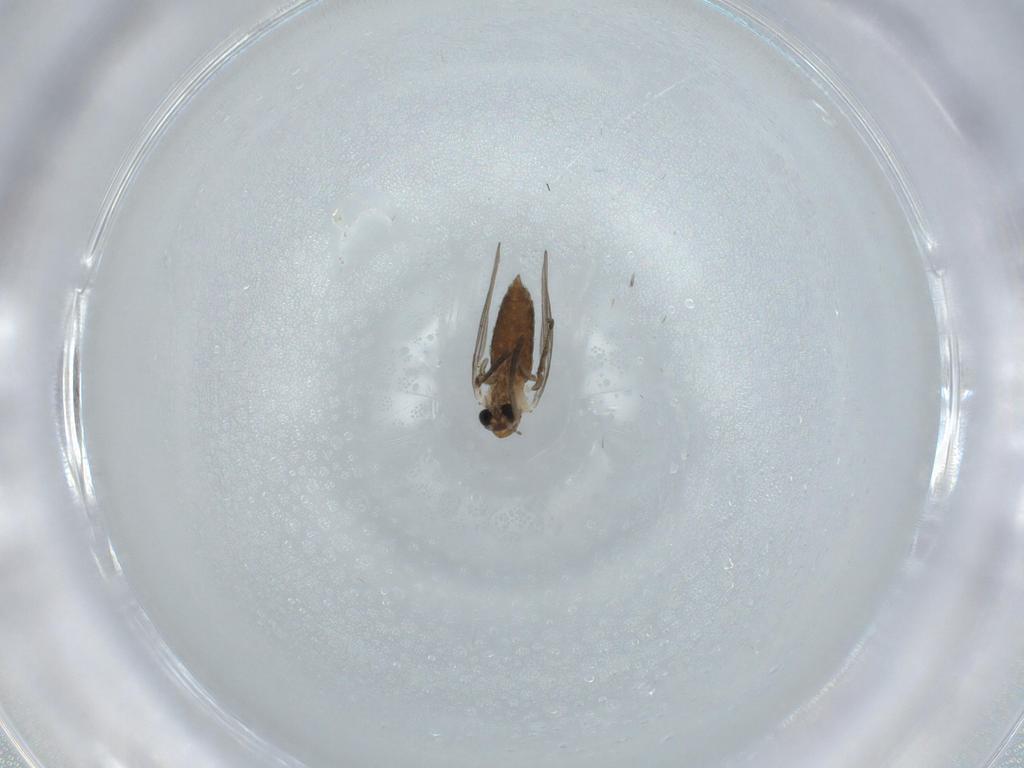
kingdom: Animalia
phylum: Arthropoda
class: Insecta
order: Diptera
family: Psychodidae
